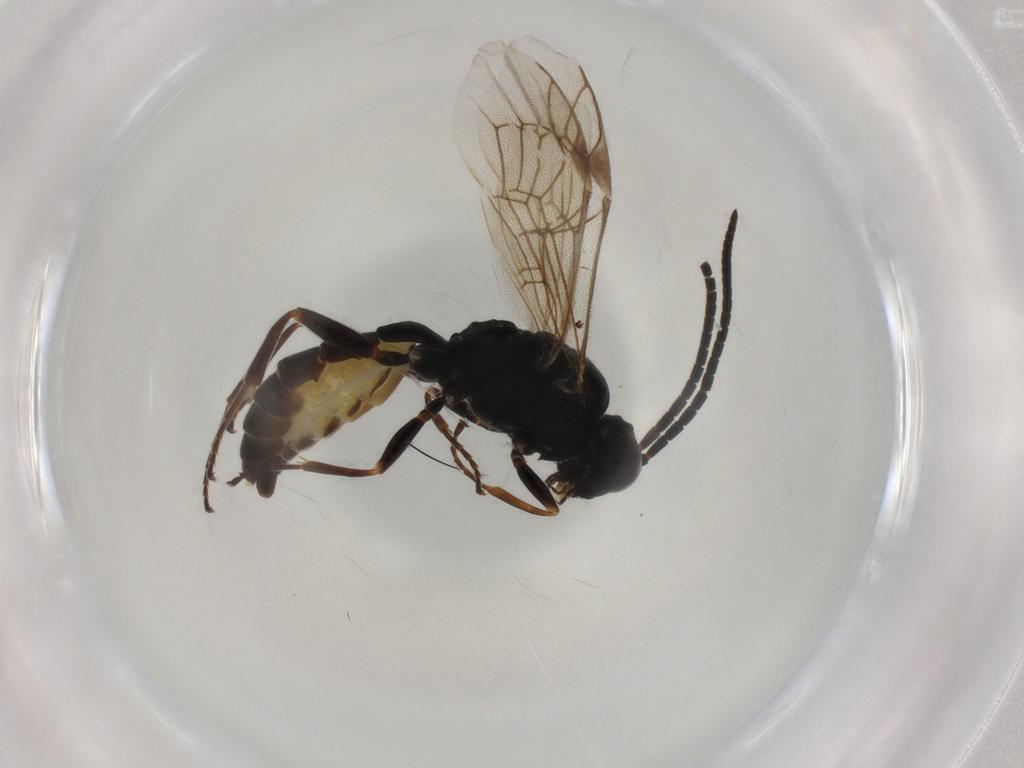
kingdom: Animalia
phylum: Arthropoda
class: Insecta
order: Hymenoptera
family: Ichneumonidae
